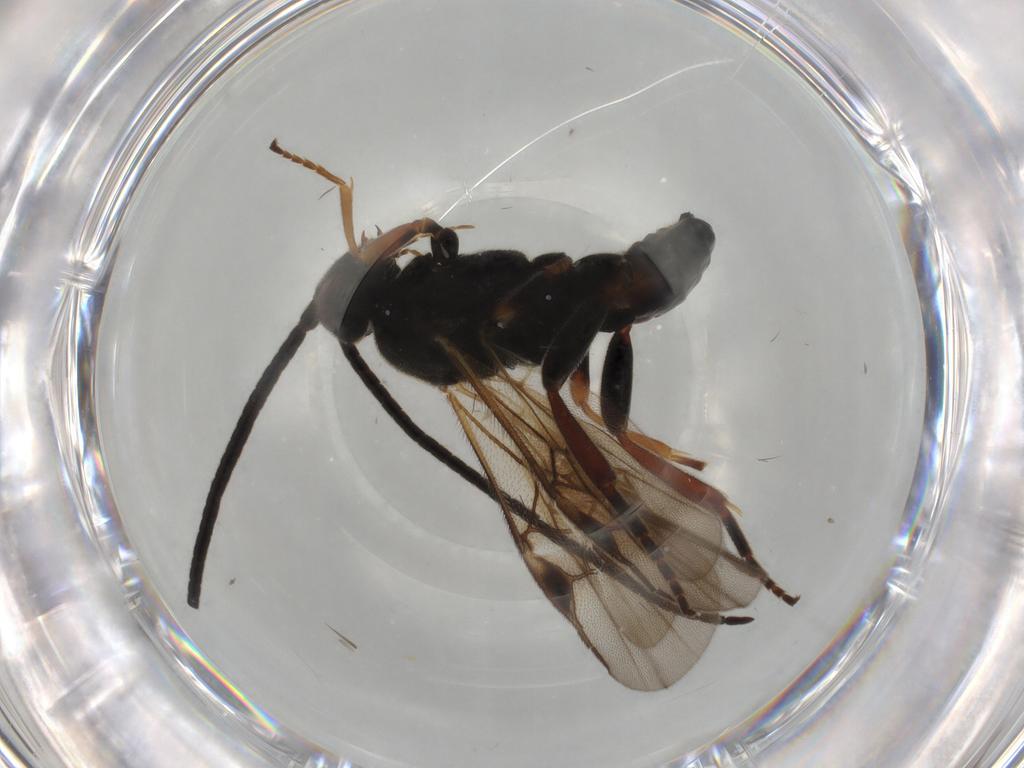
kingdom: Animalia
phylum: Arthropoda
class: Insecta
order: Hymenoptera
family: Braconidae
